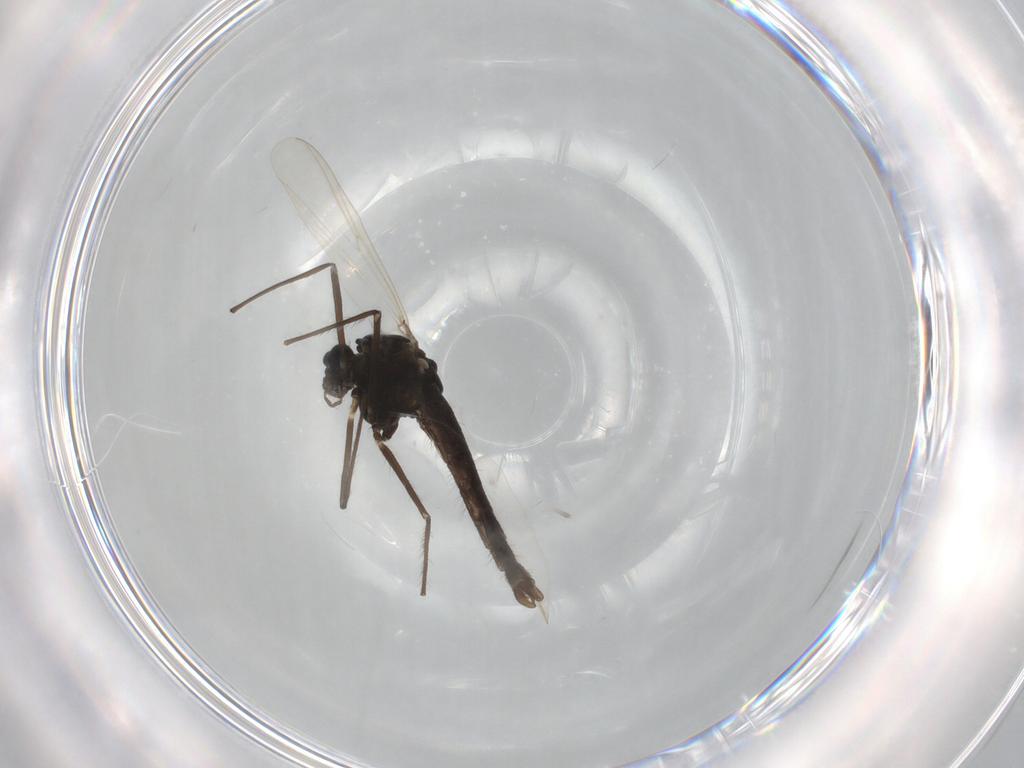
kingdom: Animalia
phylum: Arthropoda
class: Insecta
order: Diptera
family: Chironomidae
